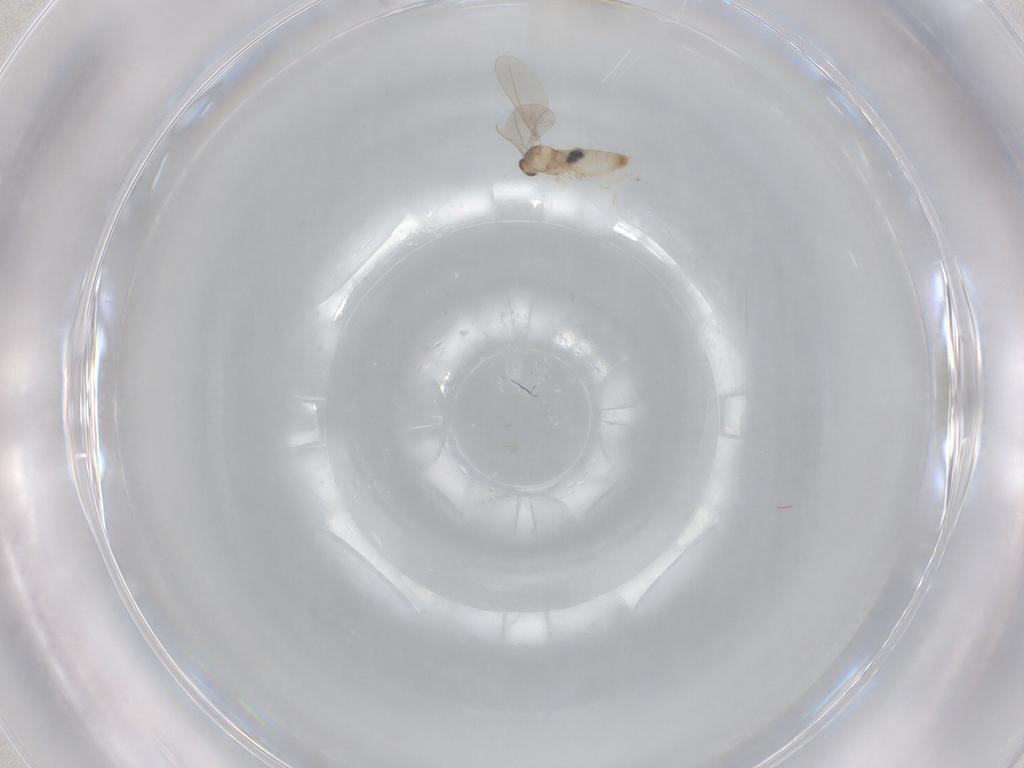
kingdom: Animalia
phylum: Arthropoda
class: Insecta
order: Diptera
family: Cecidomyiidae
